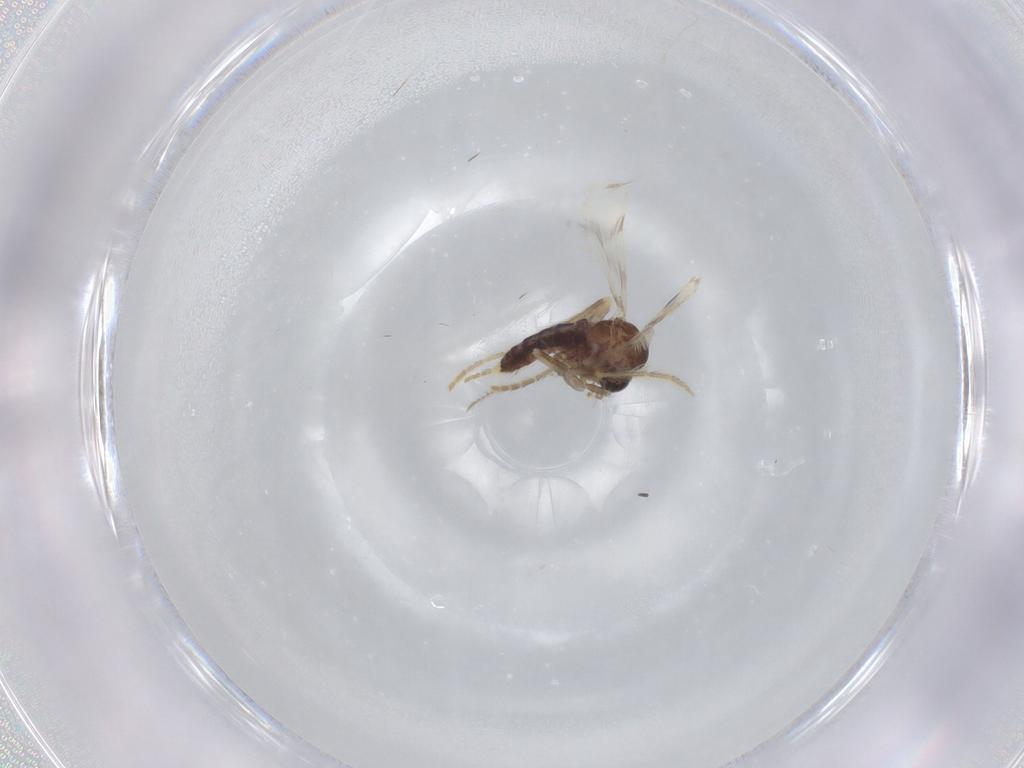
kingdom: Animalia
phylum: Arthropoda
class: Insecta
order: Diptera
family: Corethrellidae
